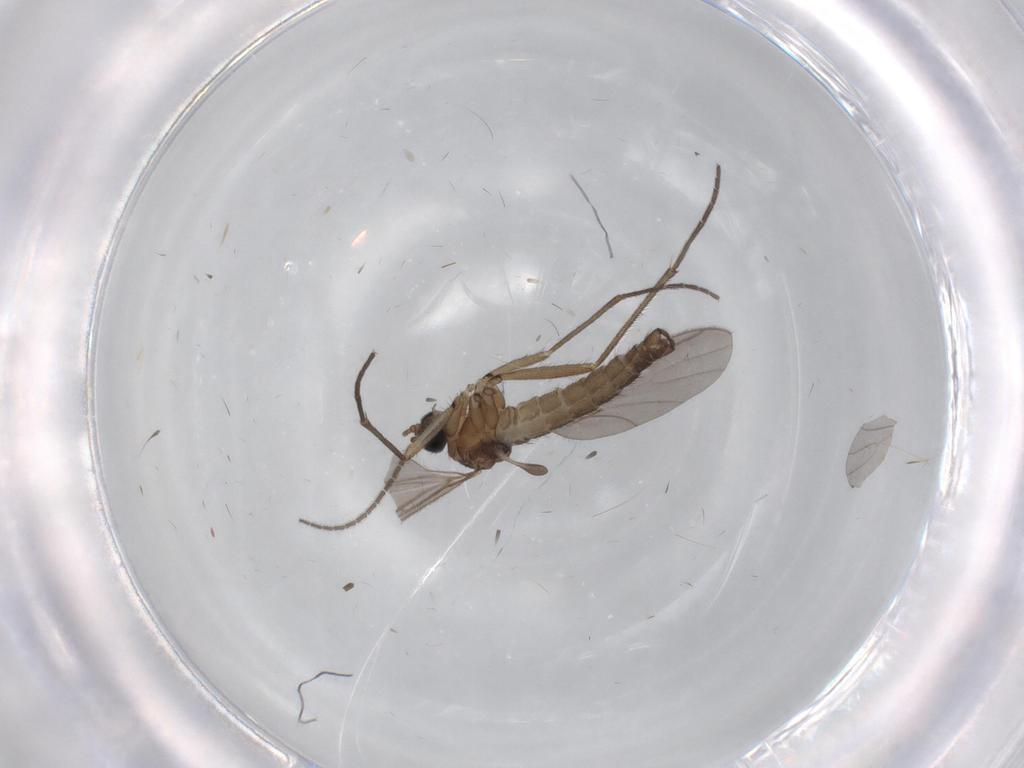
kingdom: Animalia
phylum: Arthropoda
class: Insecta
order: Diptera
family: Sciaridae
